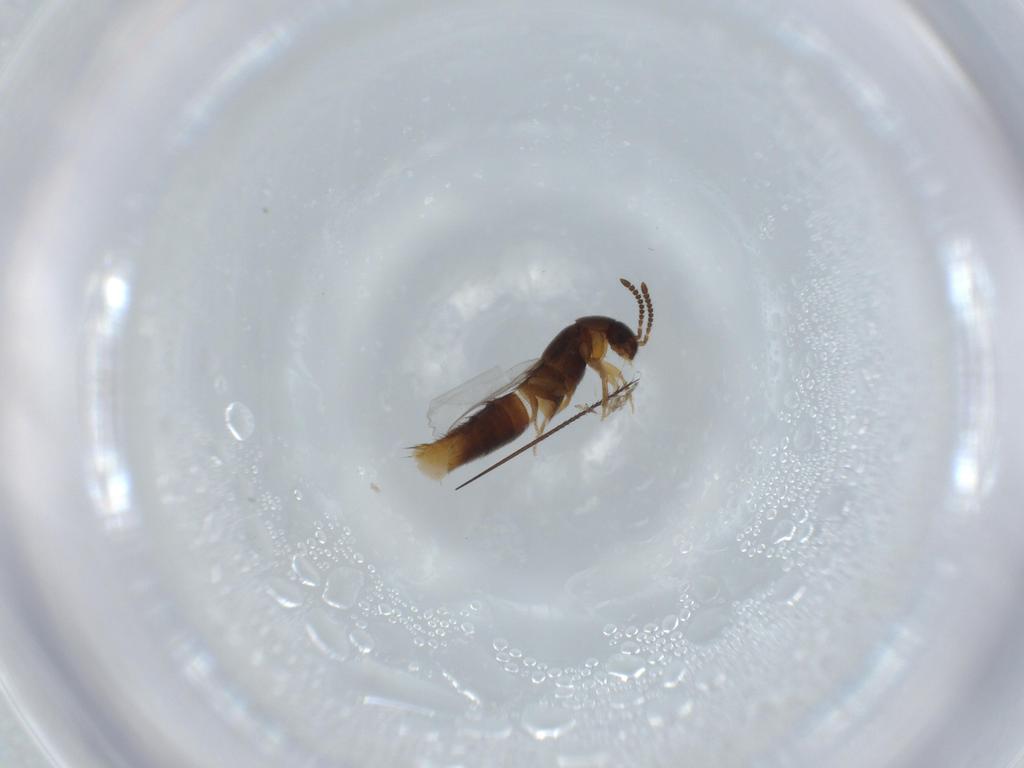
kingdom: Animalia
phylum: Arthropoda
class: Insecta
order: Coleoptera
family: Staphylinidae
